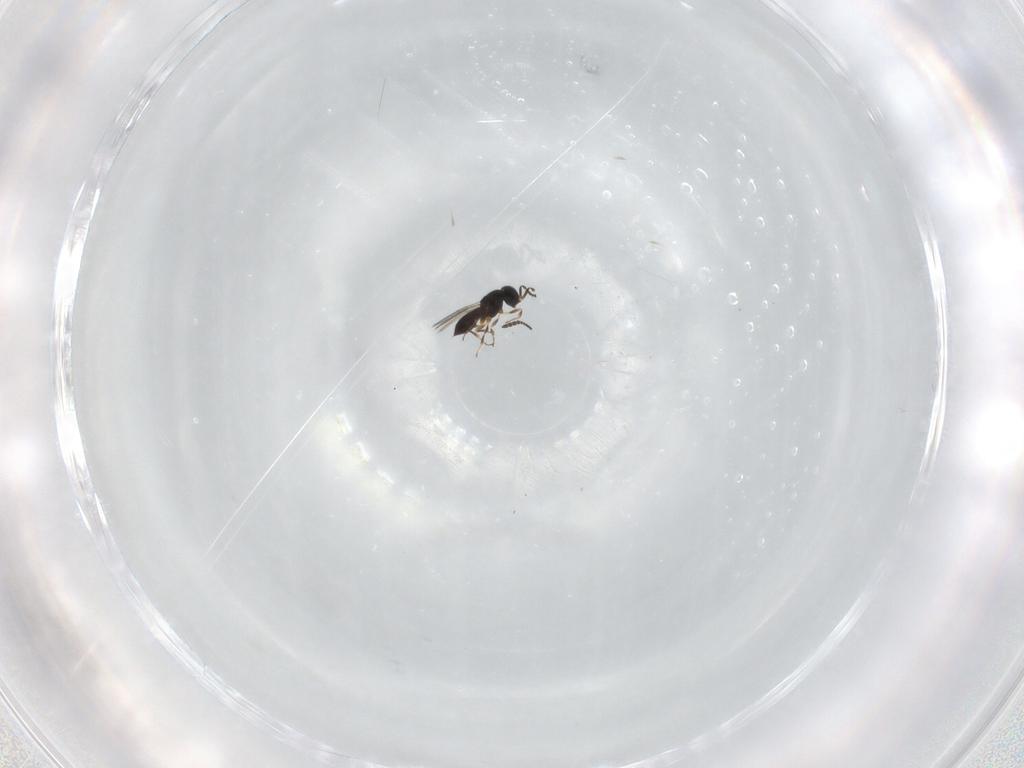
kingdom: Animalia
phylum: Arthropoda
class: Insecta
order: Hymenoptera
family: Scelionidae
